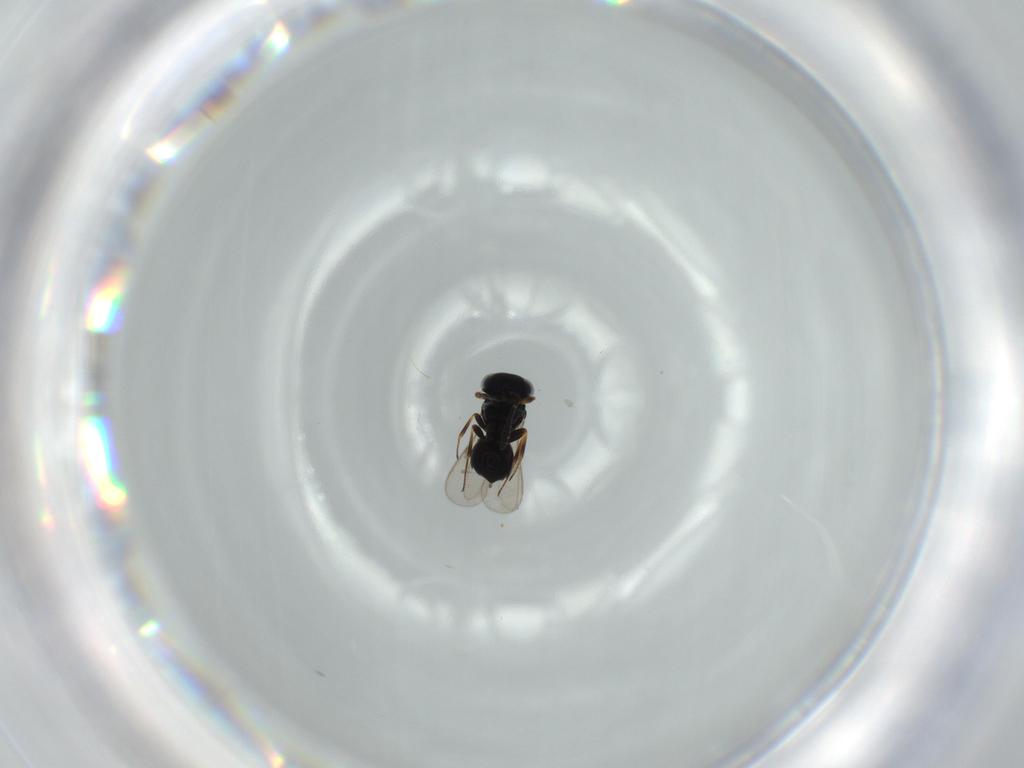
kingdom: Animalia
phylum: Arthropoda
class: Insecta
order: Hymenoptera
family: Scelionidae
